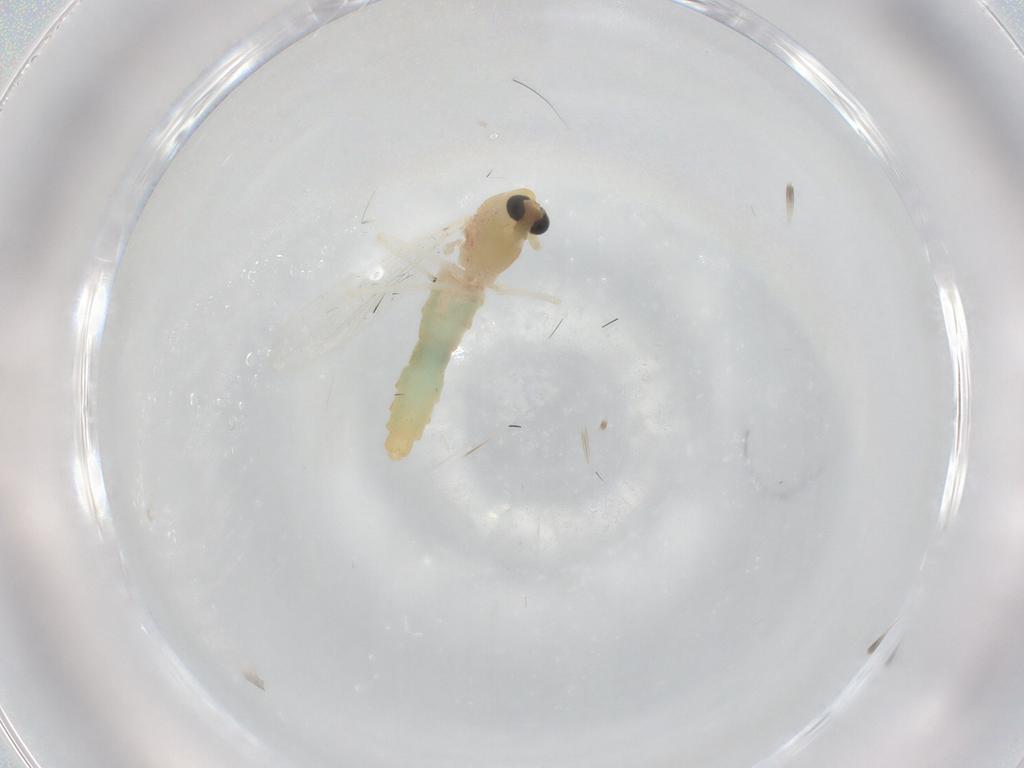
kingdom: Animalia
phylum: Arthropoda
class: Insecta
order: Diptera
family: Chironomidae
